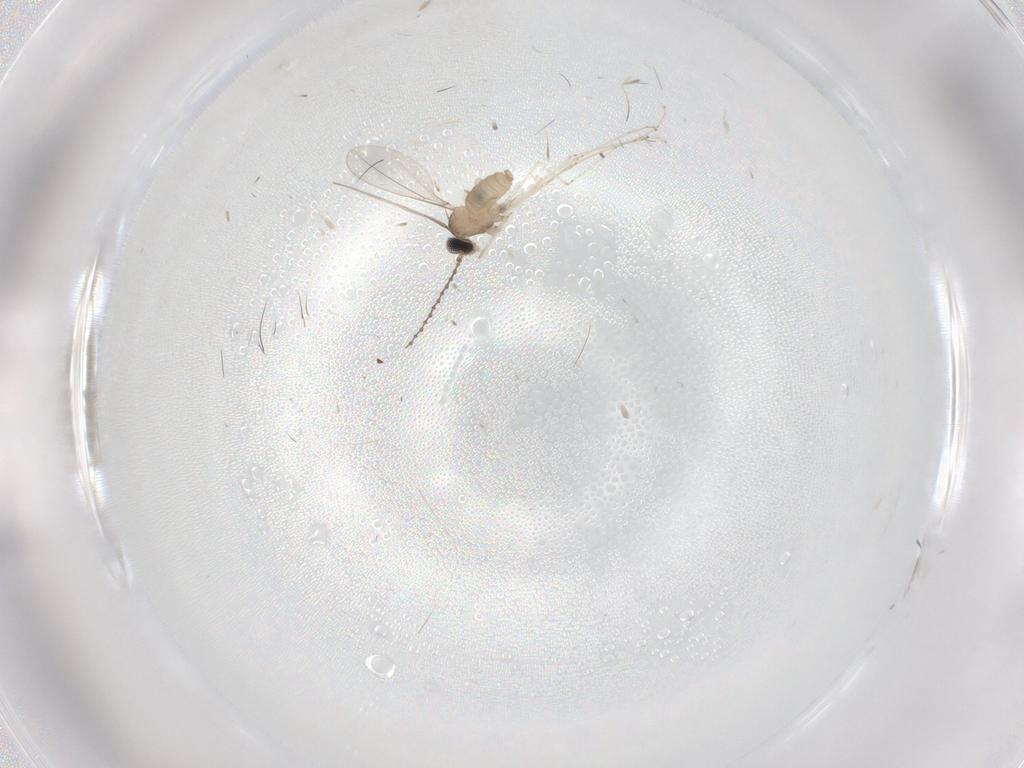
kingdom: Animalia
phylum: Arthropoda
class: Insecta
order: Diptera
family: Cecidomyiidae
